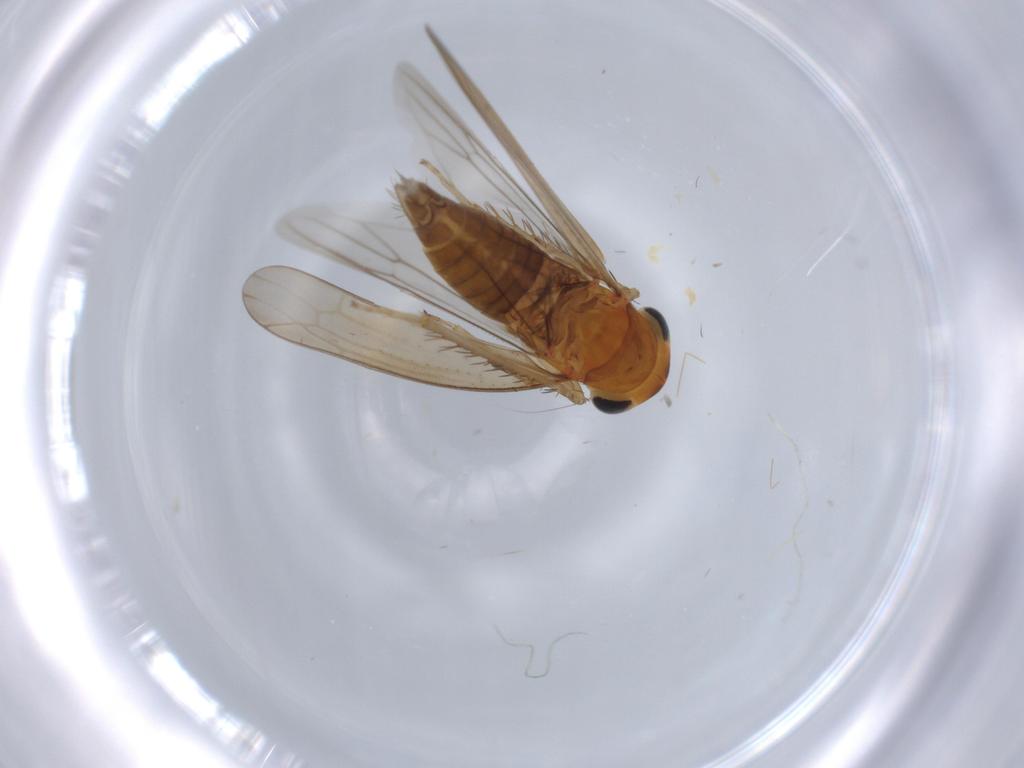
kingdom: Animalia
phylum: Arthropoda
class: Insecta
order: Hemiptera
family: Cicadellidae
